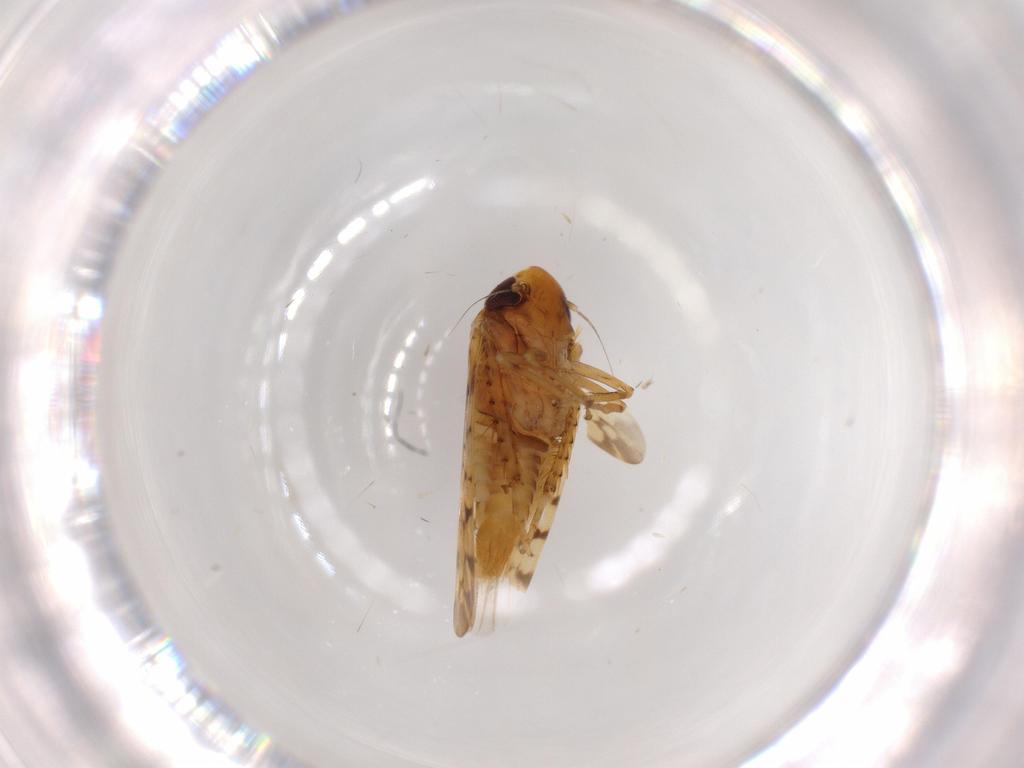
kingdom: Animalia
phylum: Arthropoda
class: Insecta
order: Hemiptera
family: Cicadellidae
